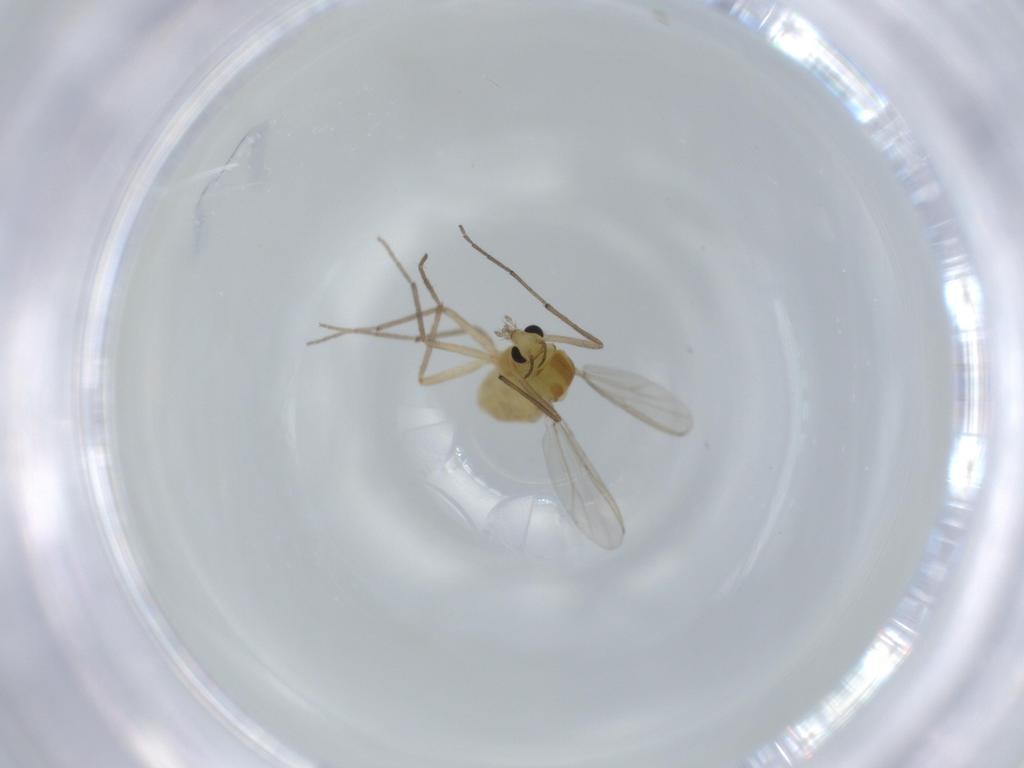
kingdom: Animalia
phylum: Arthropoda
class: Insecta
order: Diptera
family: Chironomidae
